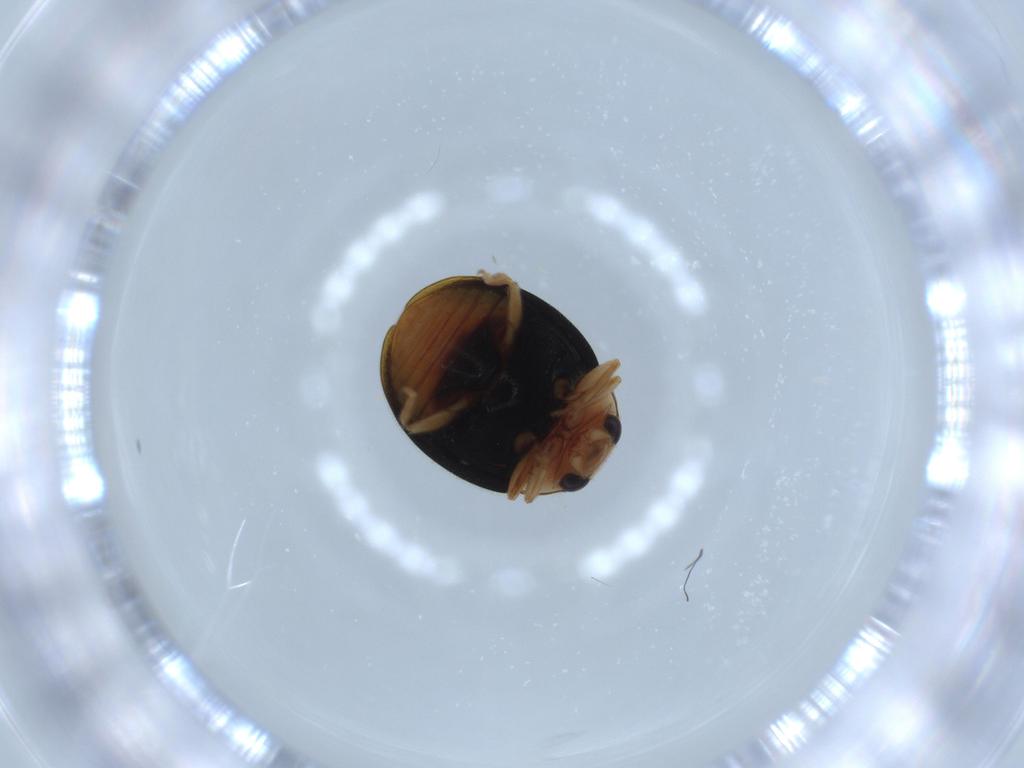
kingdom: Animalia
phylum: Arthropoda
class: Insecta
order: Coleoptera
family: Coccinellidae
